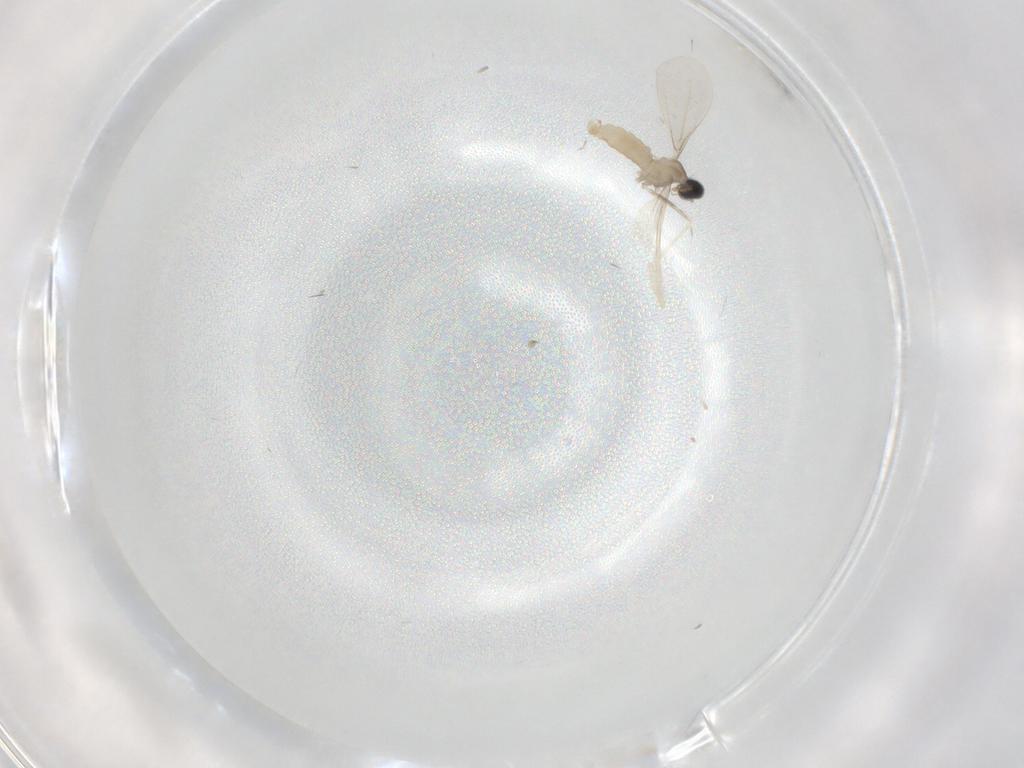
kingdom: Animalia
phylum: Arthropoda
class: Insecta
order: Diptera
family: Cecidomyiidae
